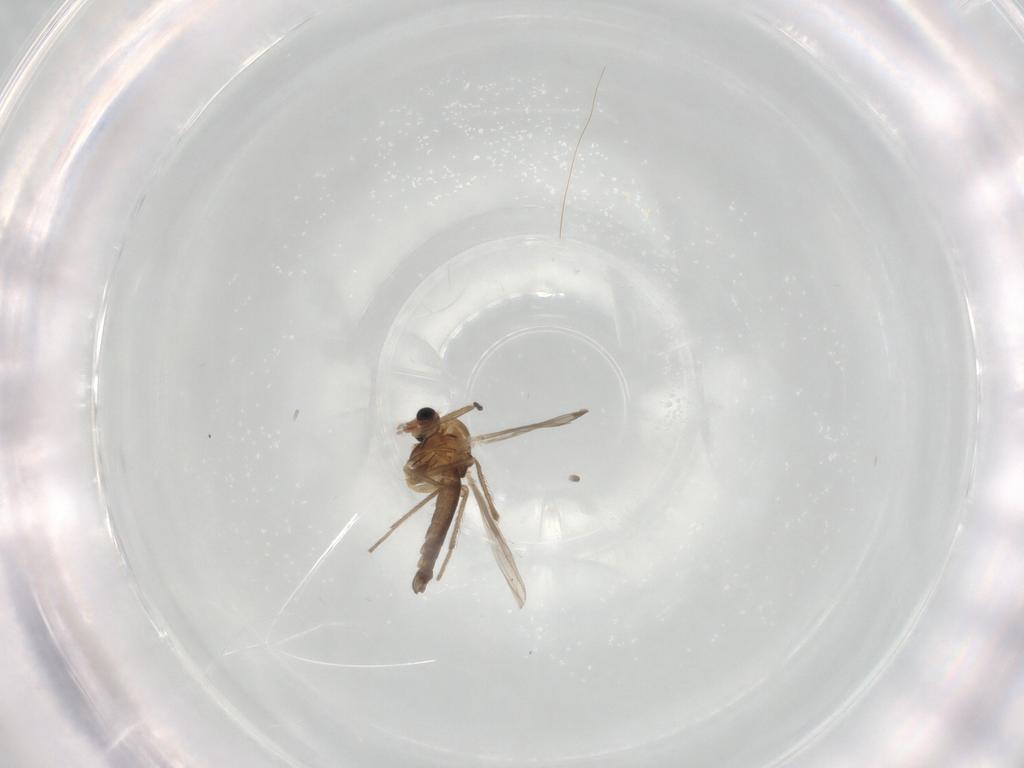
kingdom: Animalia
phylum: Arthropoda
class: Insecta
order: Diptera
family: Chironomidae
